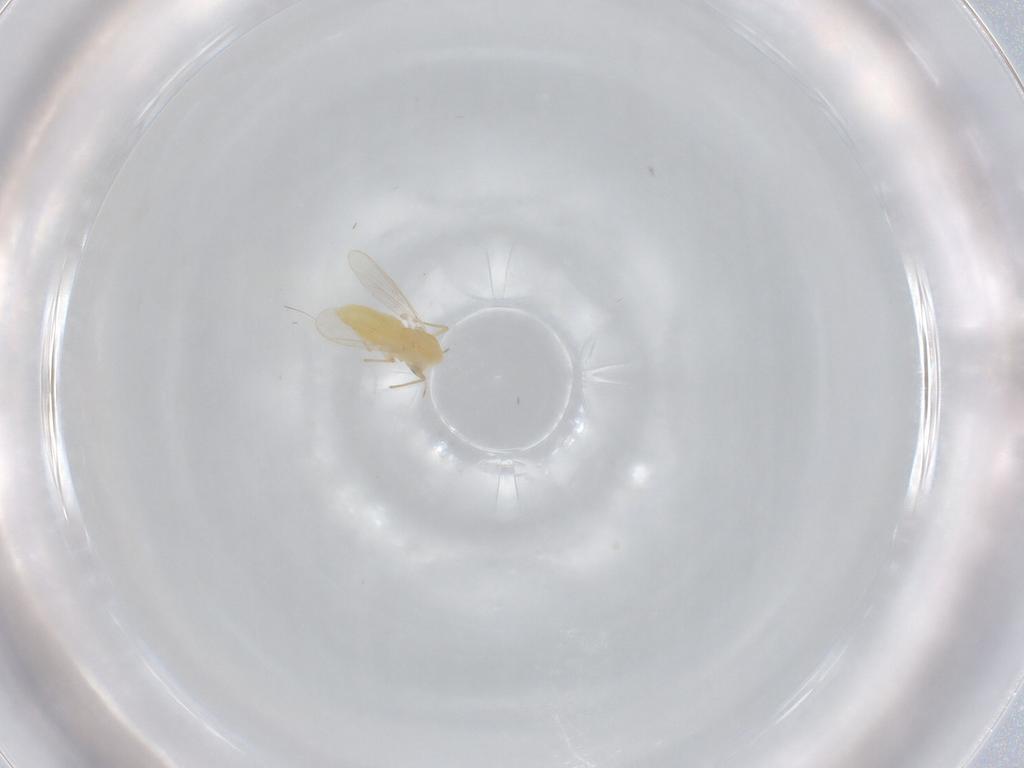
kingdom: Animalia
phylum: Arthropoda
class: Insecta
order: Diptera
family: Chironomidae
